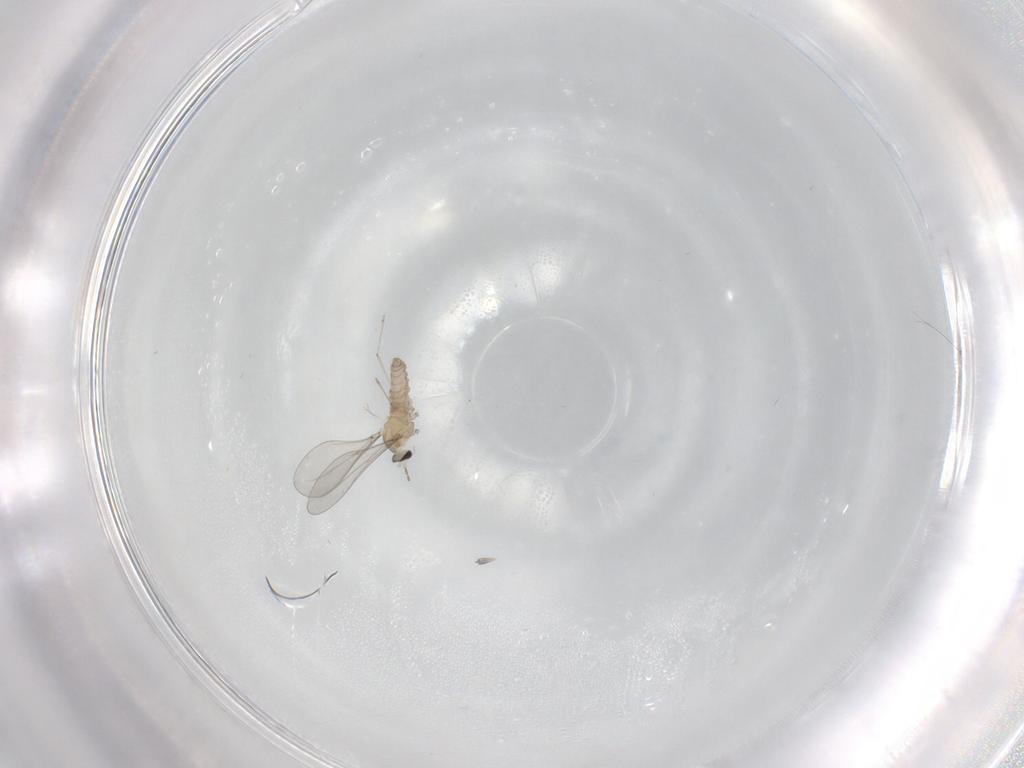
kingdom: Animalia
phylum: Arthropoda
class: Insecta
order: Diptera
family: Cecidomyiidae
